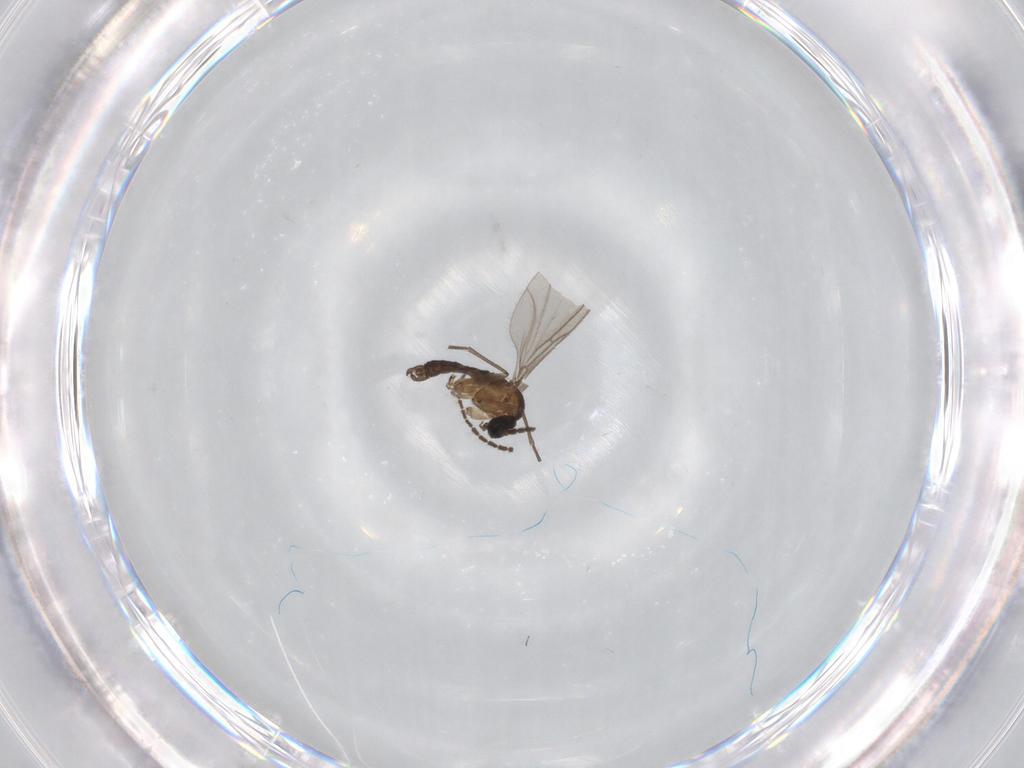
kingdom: Animalia
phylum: Arthropoda
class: Insecta
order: Diptera
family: Sciaridae
